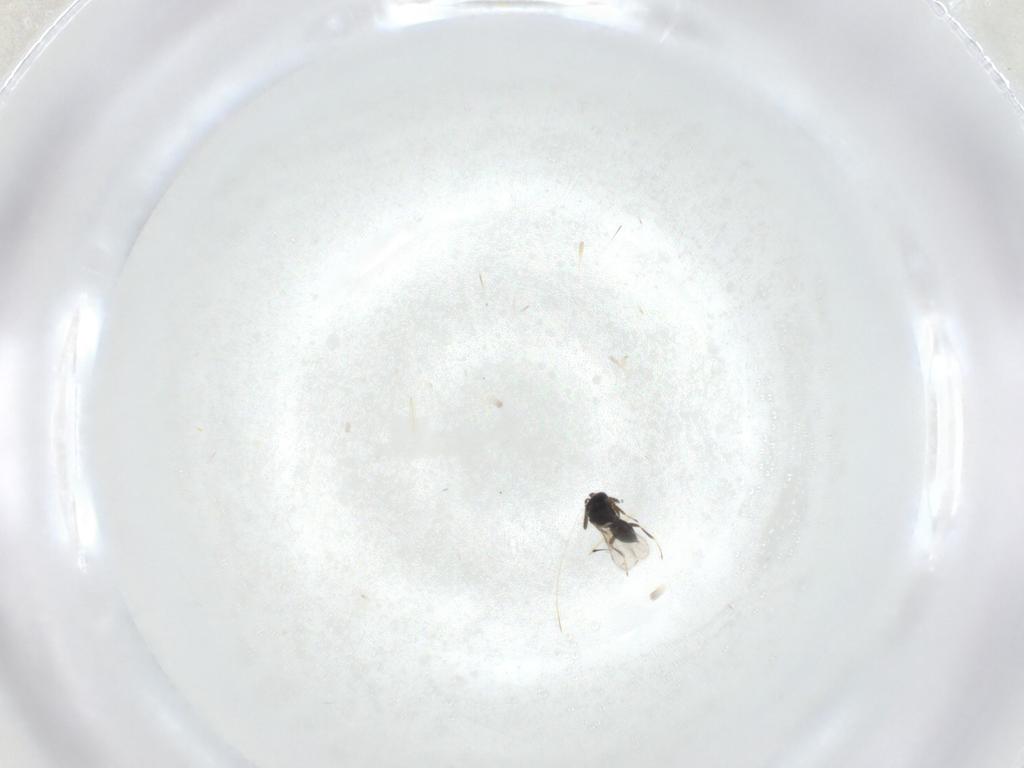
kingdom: Animalia
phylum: Arthropoda
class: Insecta
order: Hymenoptera
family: Scelionidae
